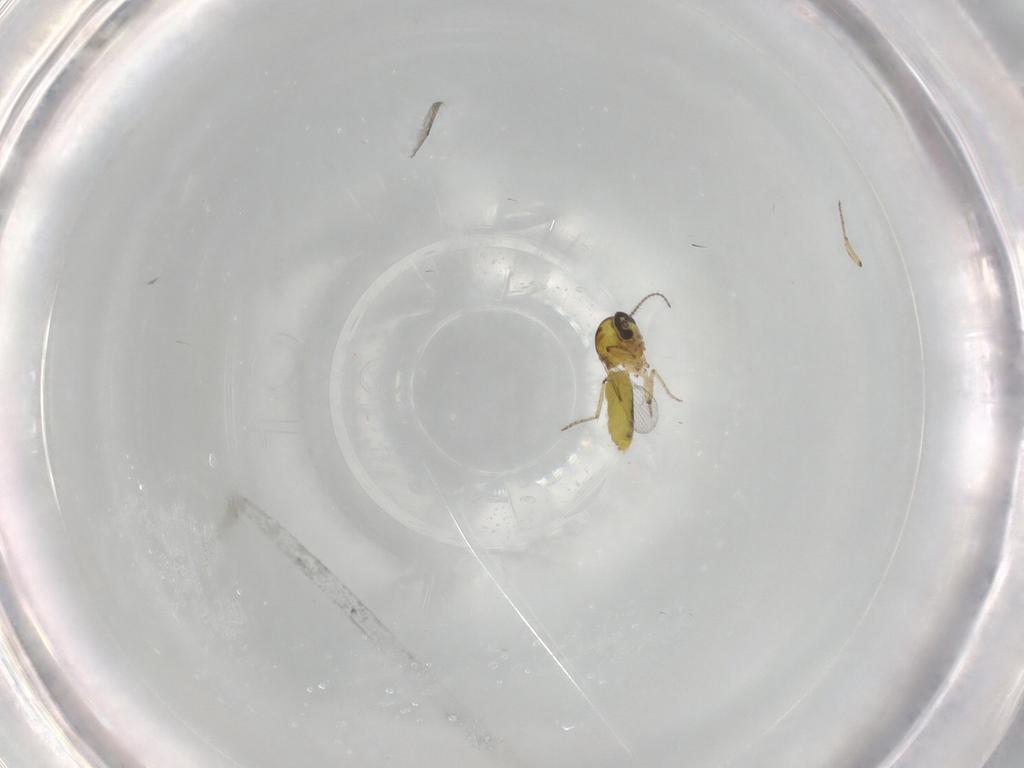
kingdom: Animalia
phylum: Arthropoda
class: Insecta
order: Diptera
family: Ceratopogonidae
